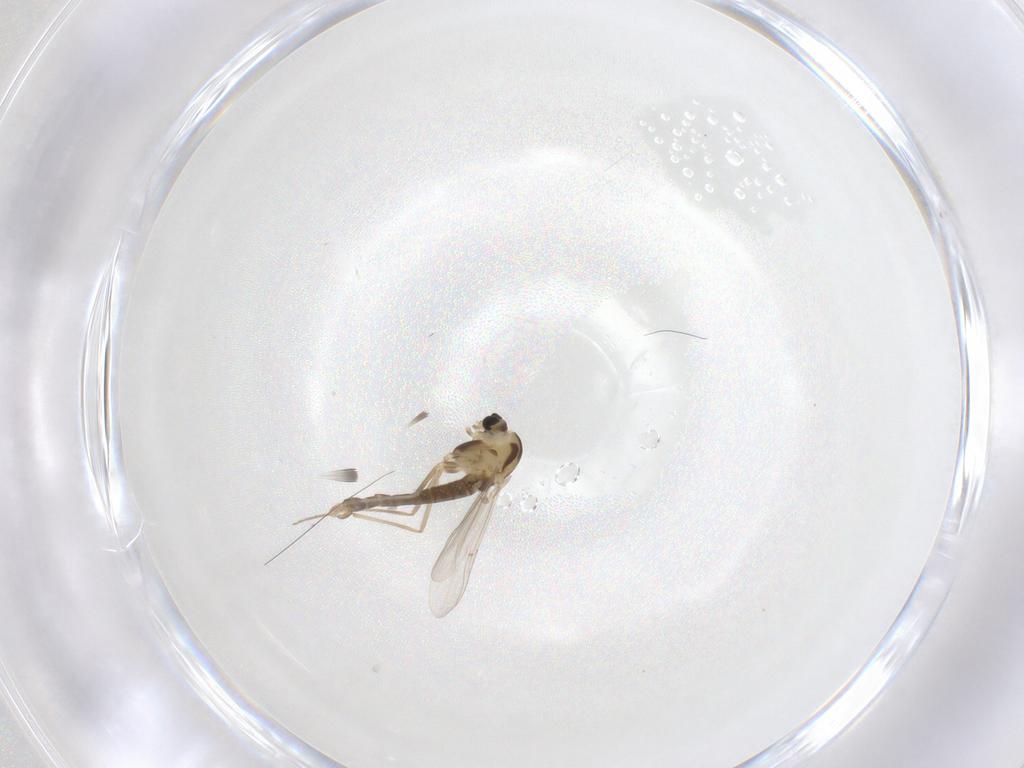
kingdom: Animalia
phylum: Arthropoda
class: Insecta
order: Diptera
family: Chironomidae
